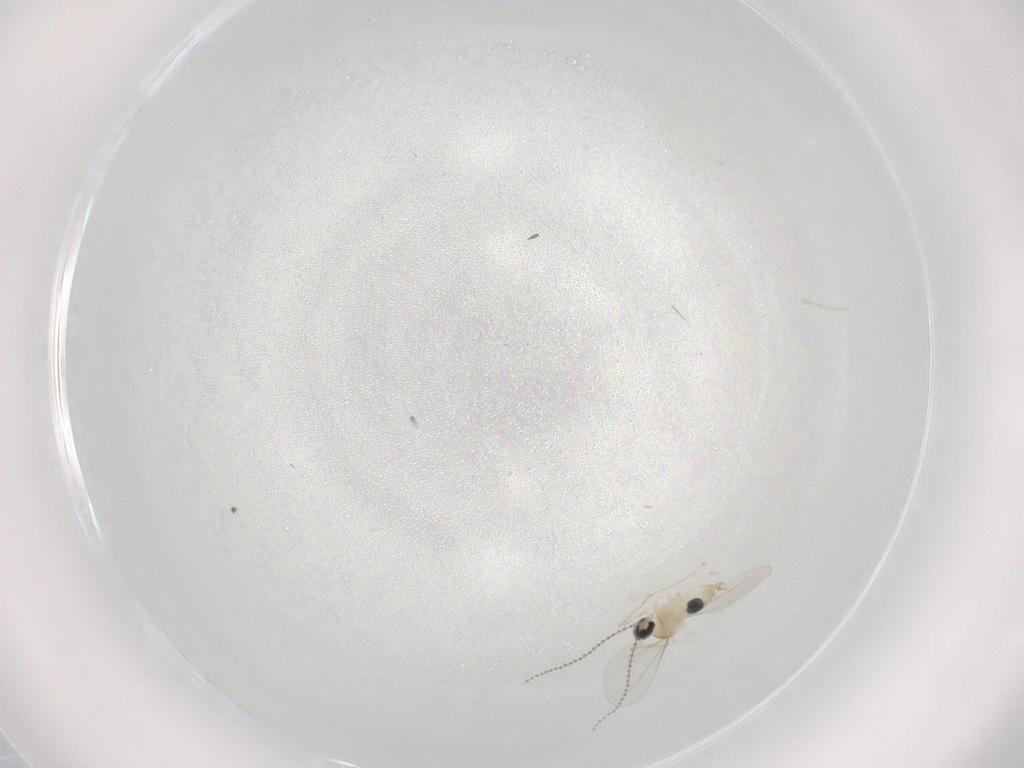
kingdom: Animalia
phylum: Arthropoda
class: Insecta
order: Diptera
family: Cecidomyiidae
